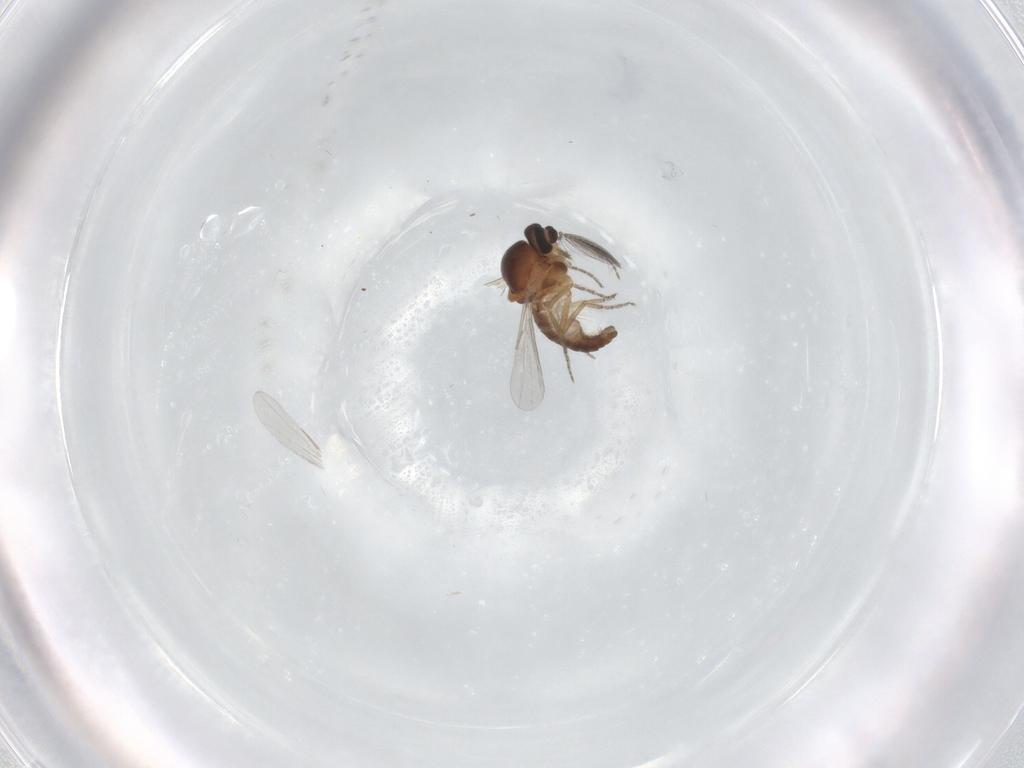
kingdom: Animalia
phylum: Arthropoda
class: Insecta
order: Diptera
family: Ceratopogonidae
